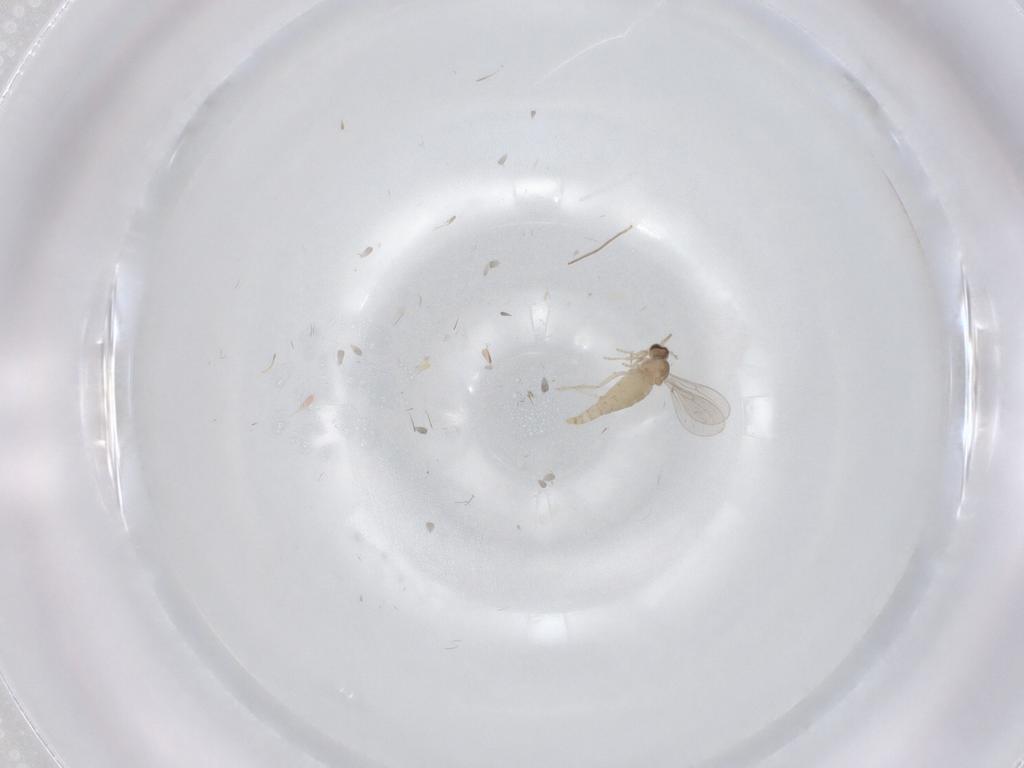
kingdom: Animalia
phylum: Arthropoda
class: Insecta
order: Diptera
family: Cecidomyiidae
